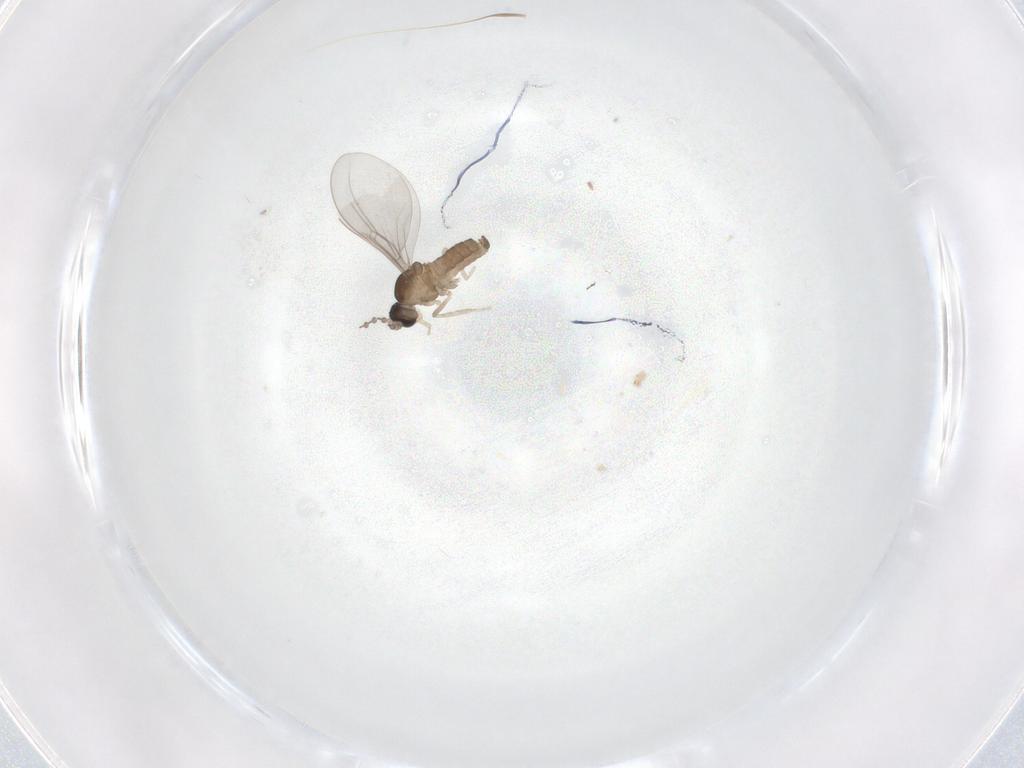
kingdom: Animalia
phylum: Arthropoda
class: Insecta
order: Diptera
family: Cecidomyiidae
